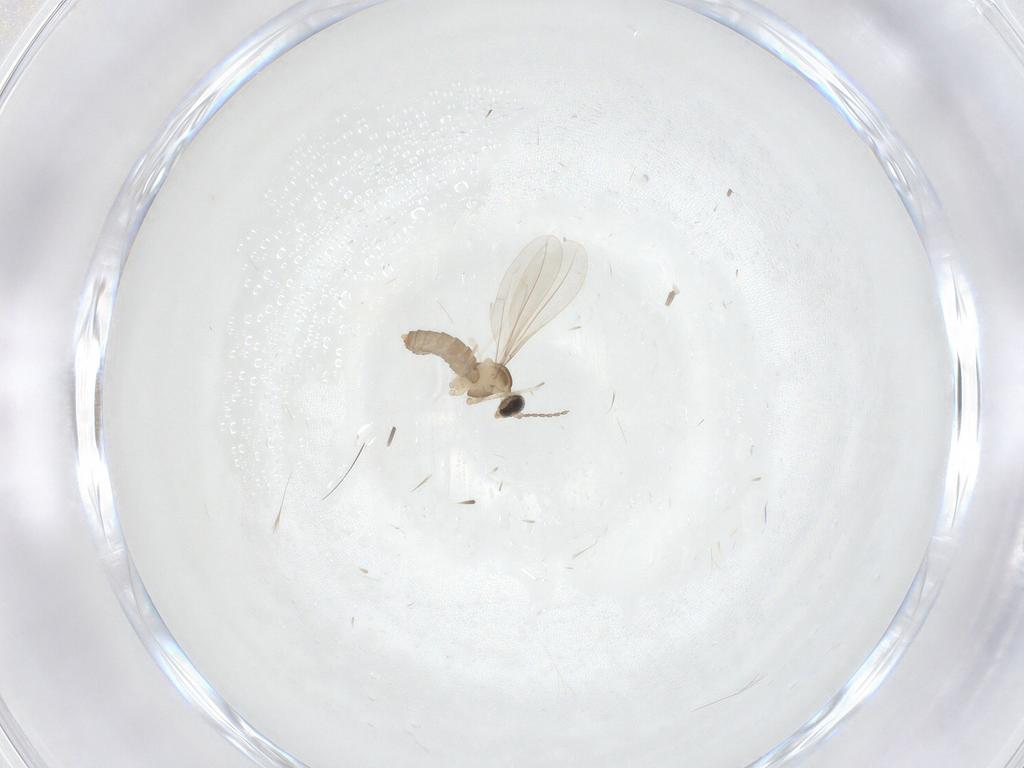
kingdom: Animalia
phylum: Arthropoda
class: Insecta
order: Diptera
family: Cecidomyiidae
